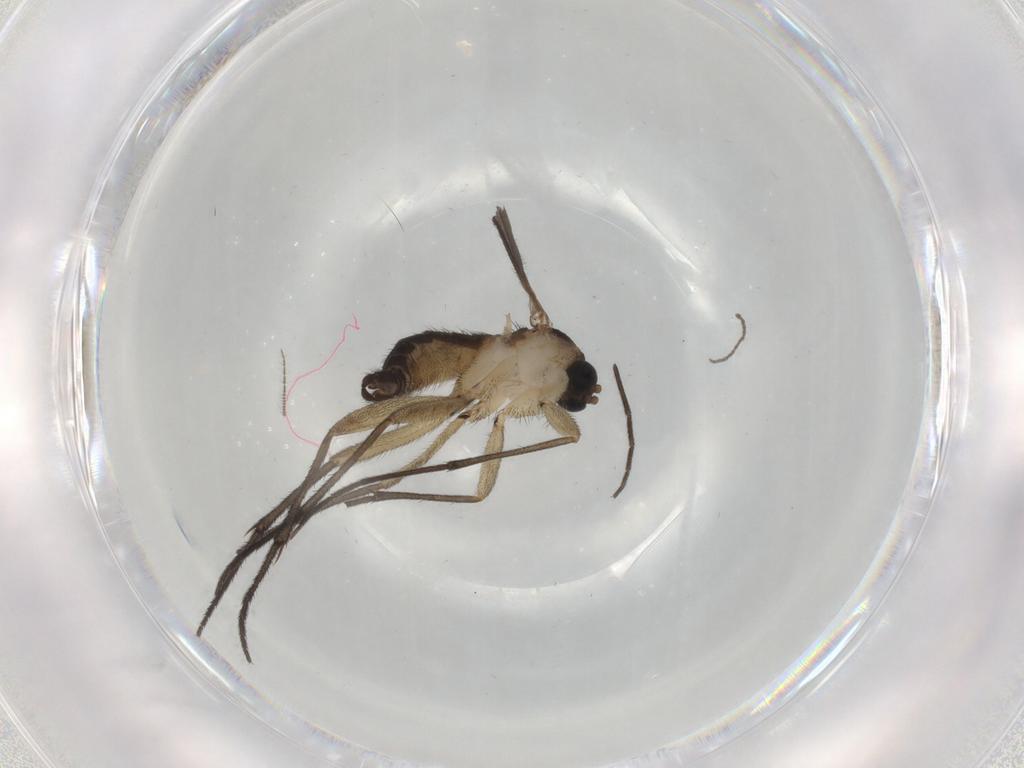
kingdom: Animalia
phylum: Arthropoda
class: Insecta
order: Diptera
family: Sciaridae
